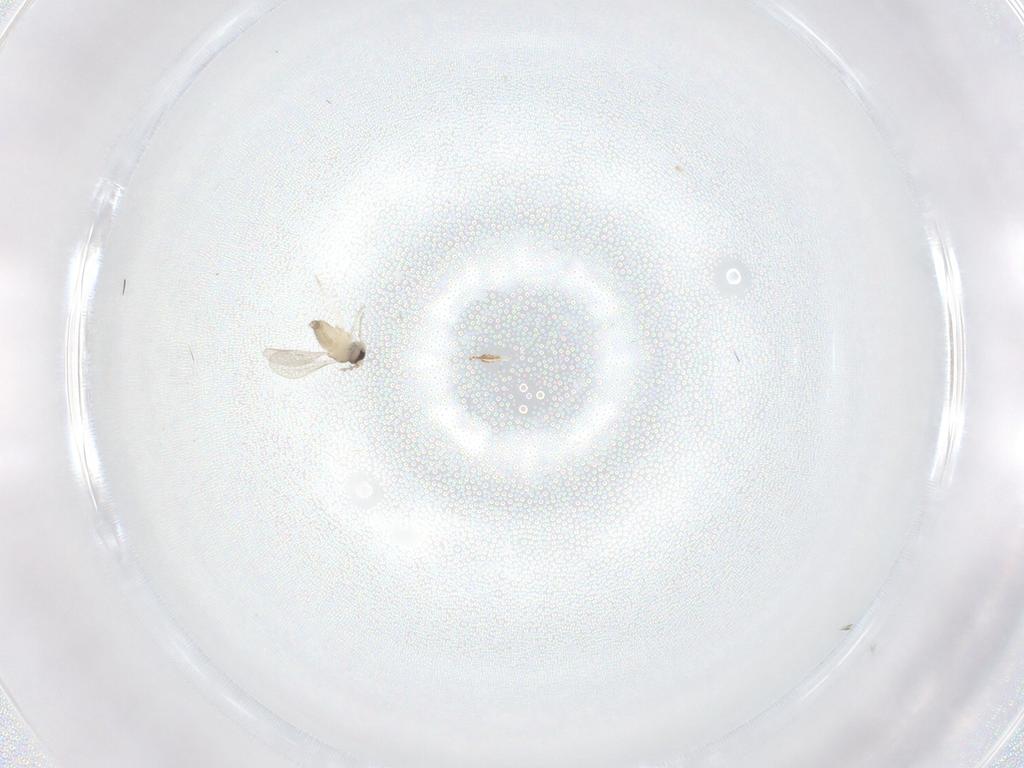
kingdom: Animalia
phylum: Arthropoda
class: Insecta
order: Diptera
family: Cecidomyiidae
